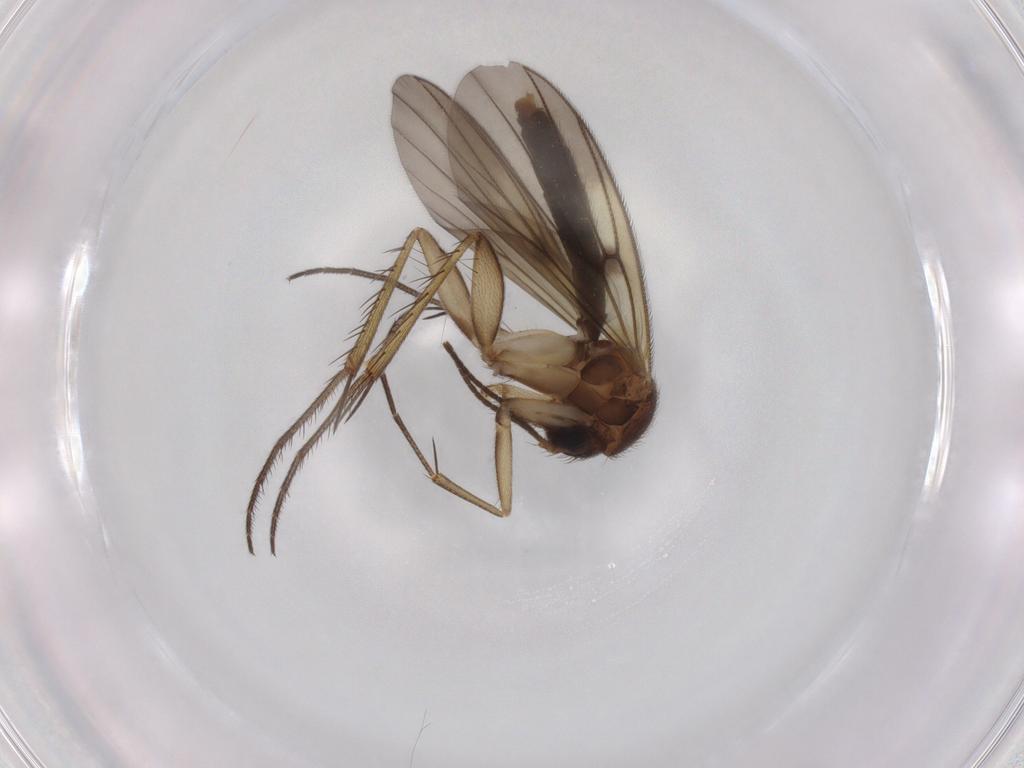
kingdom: Animalia
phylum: Arthropoda
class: Insecta
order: Diptera
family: Mycetophilidae
